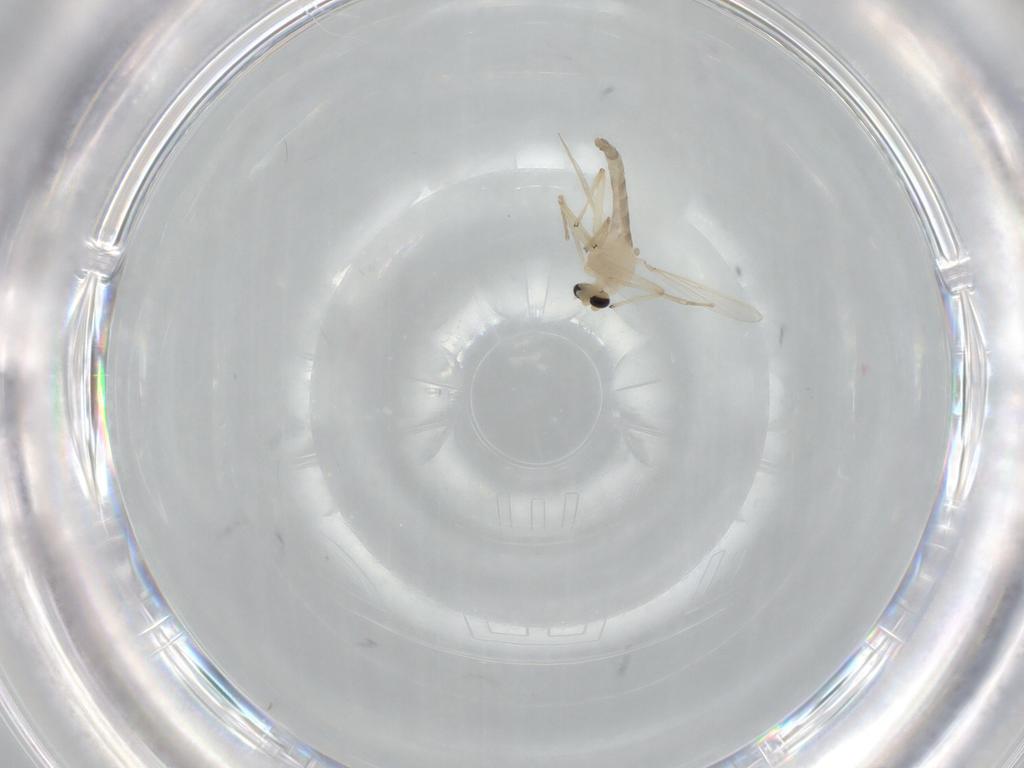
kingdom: Animalia
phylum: Arthropoda
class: Insecta
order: Diptera
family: Chironomidae
